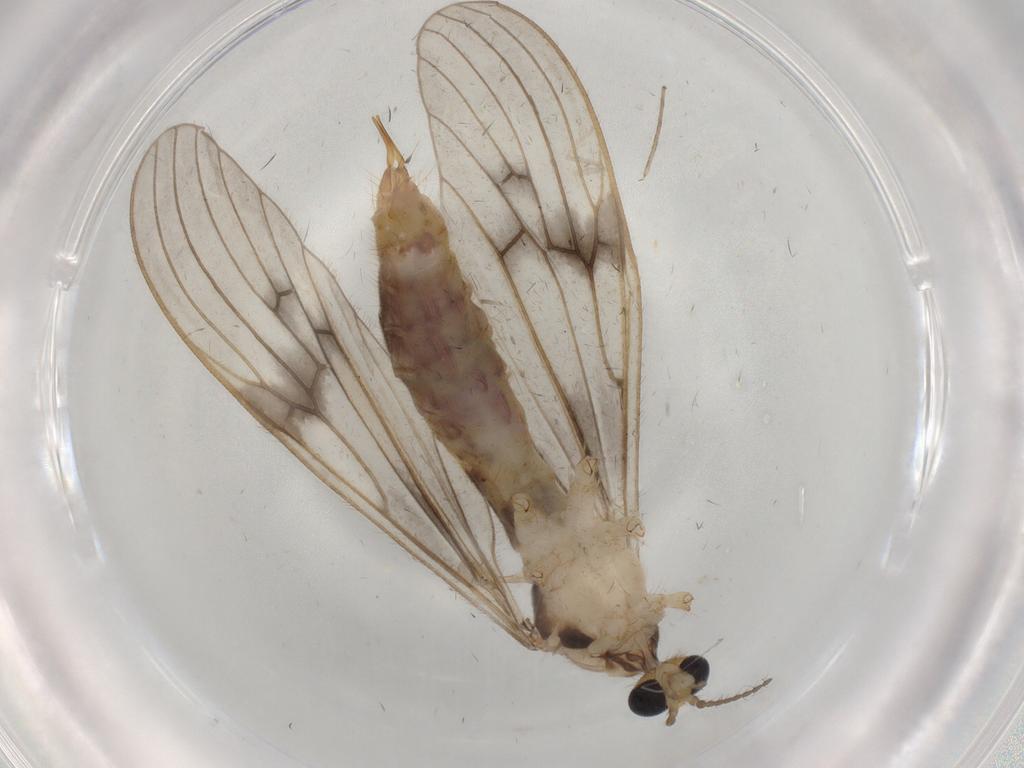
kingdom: Animalia
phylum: Arthropoda
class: Insecta
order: Diptera
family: Limoniidae
